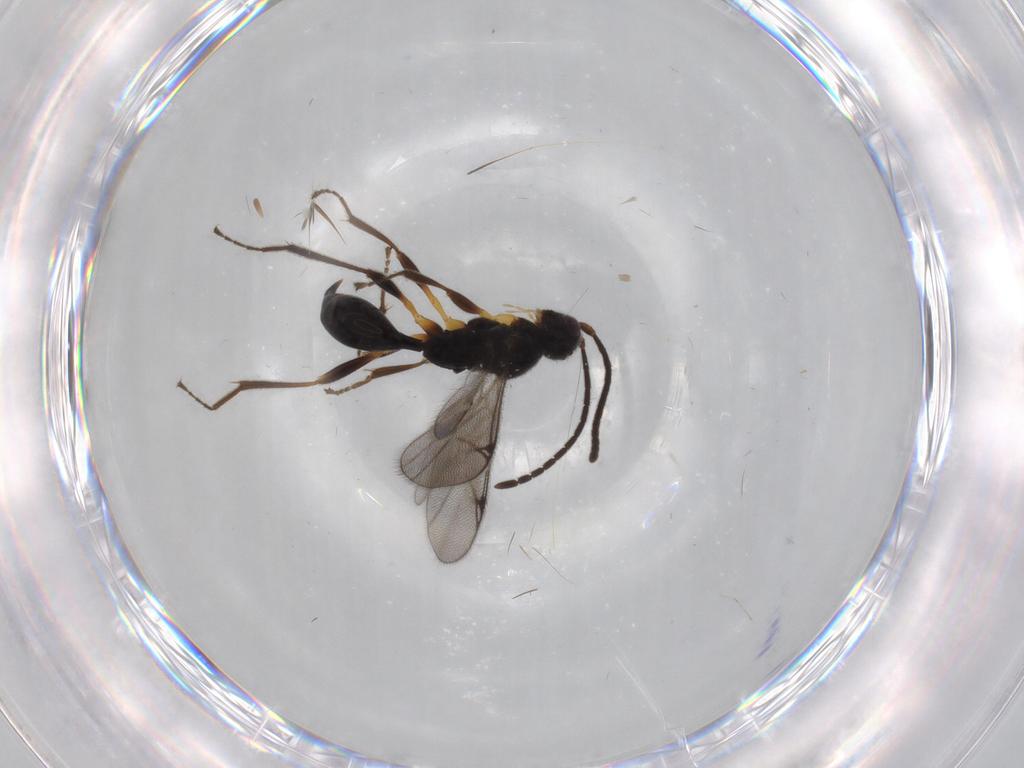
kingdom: Animalia
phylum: Arthropoda
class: Insecta
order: Hymenoptera
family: Proctotrupidae
